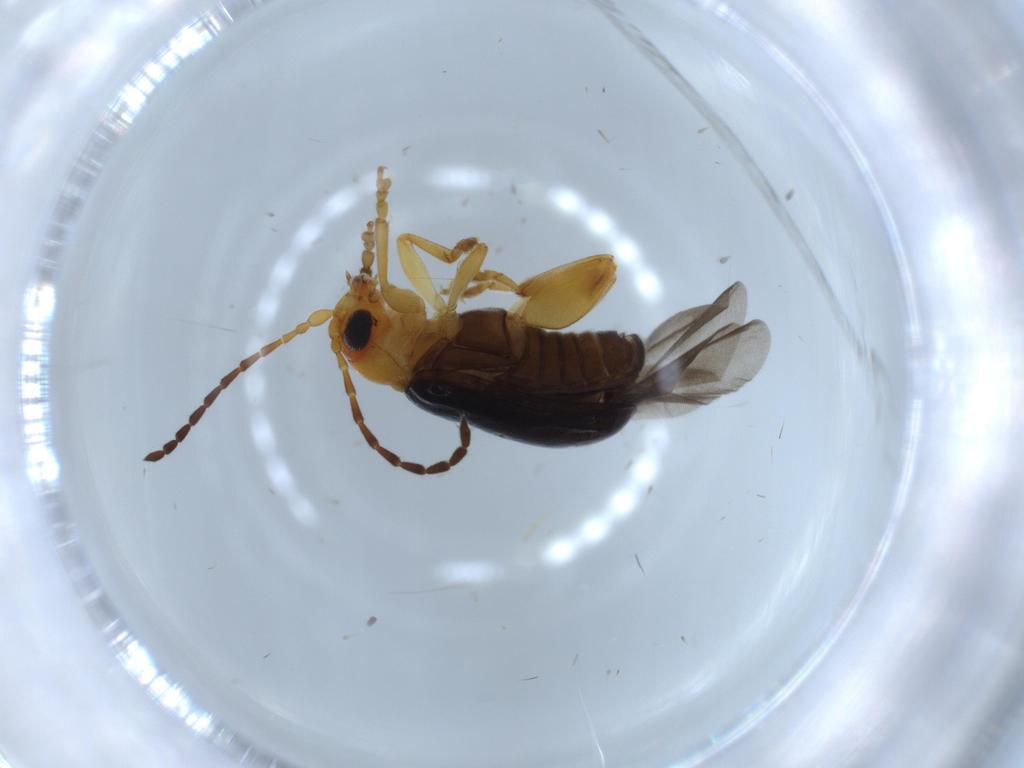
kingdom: Animalia
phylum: Arthropoda
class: Insecta
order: Coleoptera
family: Chrysomelidae
